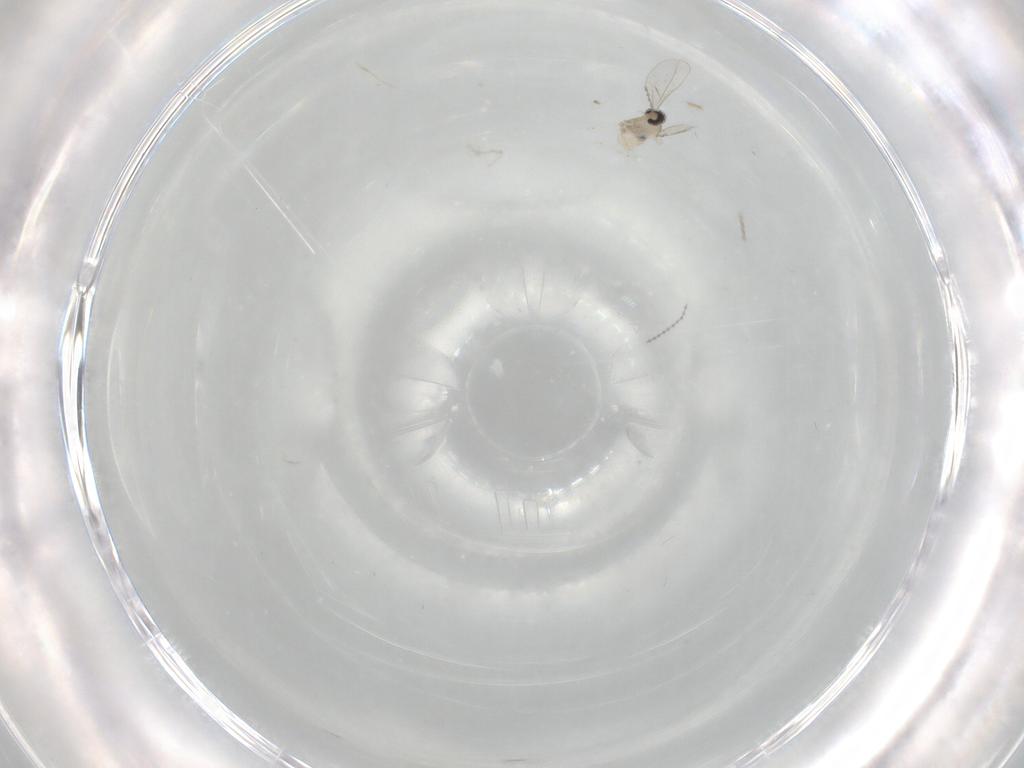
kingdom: Animalia
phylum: Arthropoda
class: Insecta
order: Diptera
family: Cecidomyiidae
